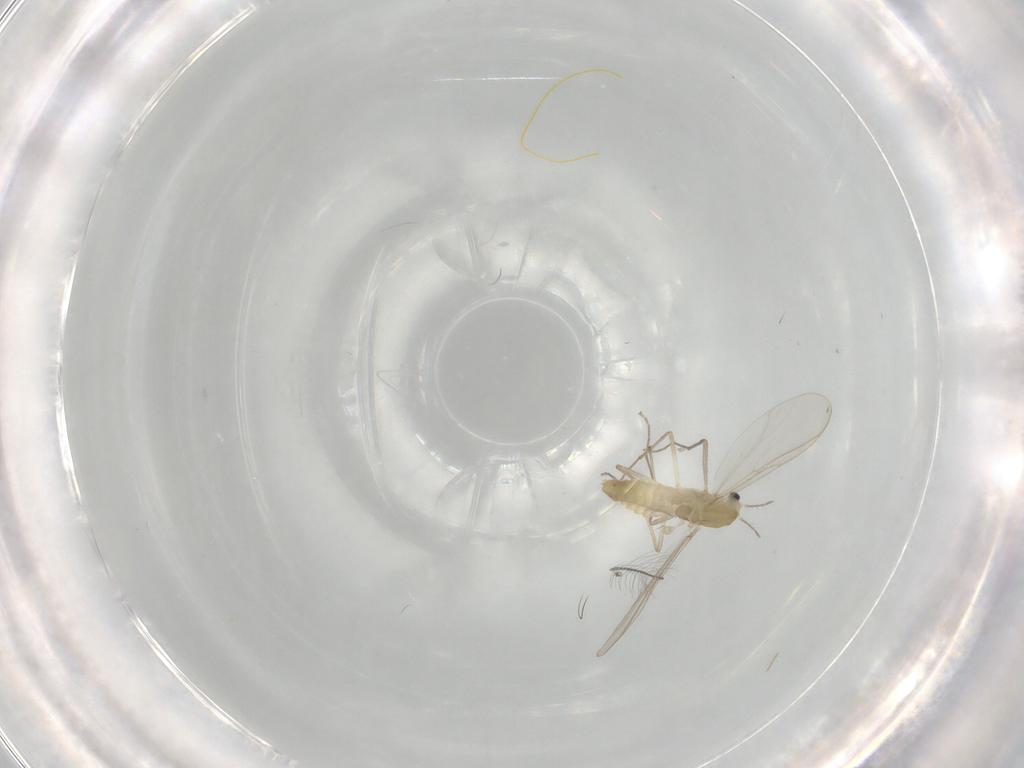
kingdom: Animalia
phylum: Arthropoda
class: Insecta
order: Diptera
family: Chironomidae
